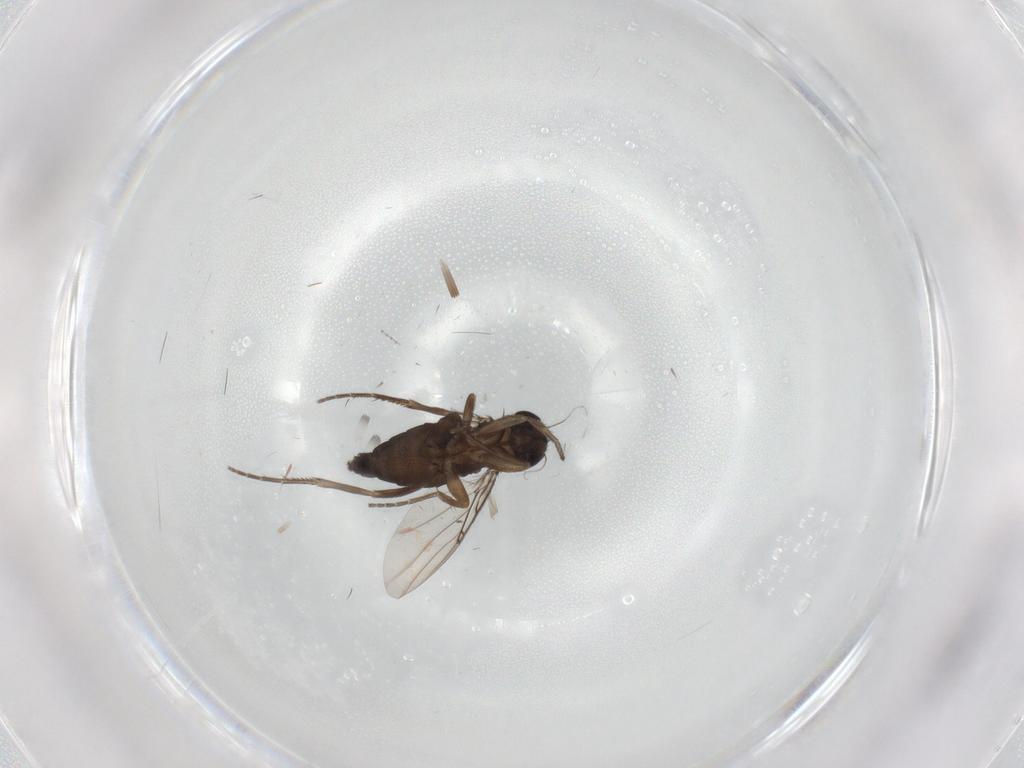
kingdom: Animalia
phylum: Arthropoda
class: Insecta
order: Diptera
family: Phoridae
